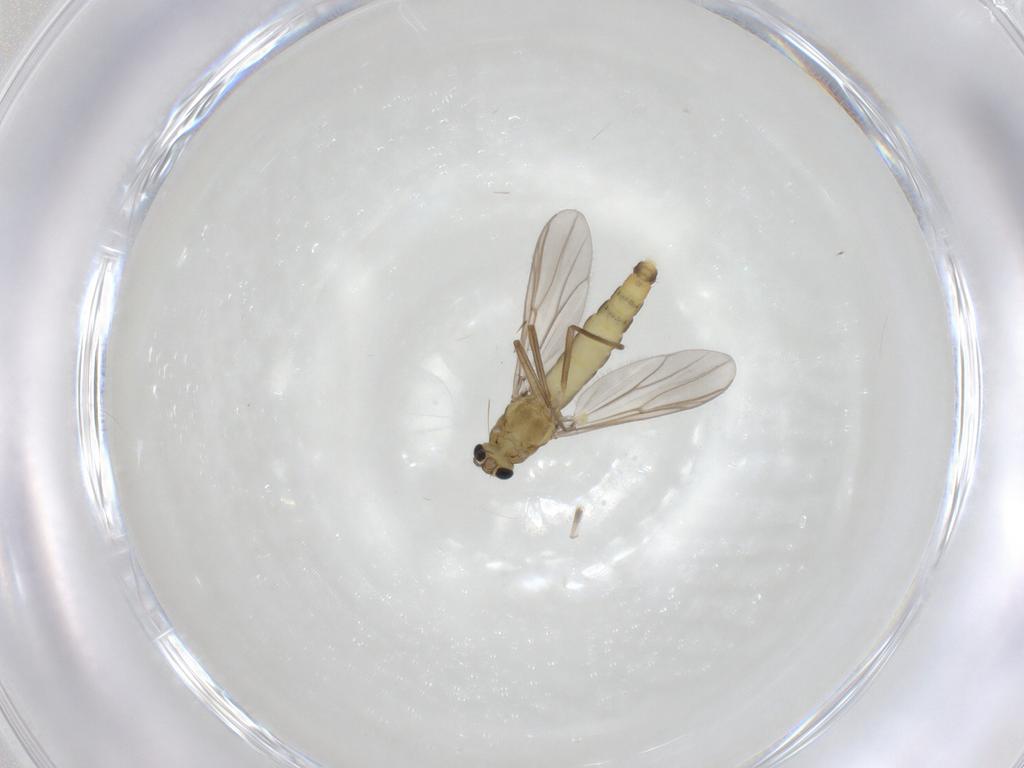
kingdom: Animalia
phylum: Arthropoda
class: Insecta
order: Diptera
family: Chironomidae
